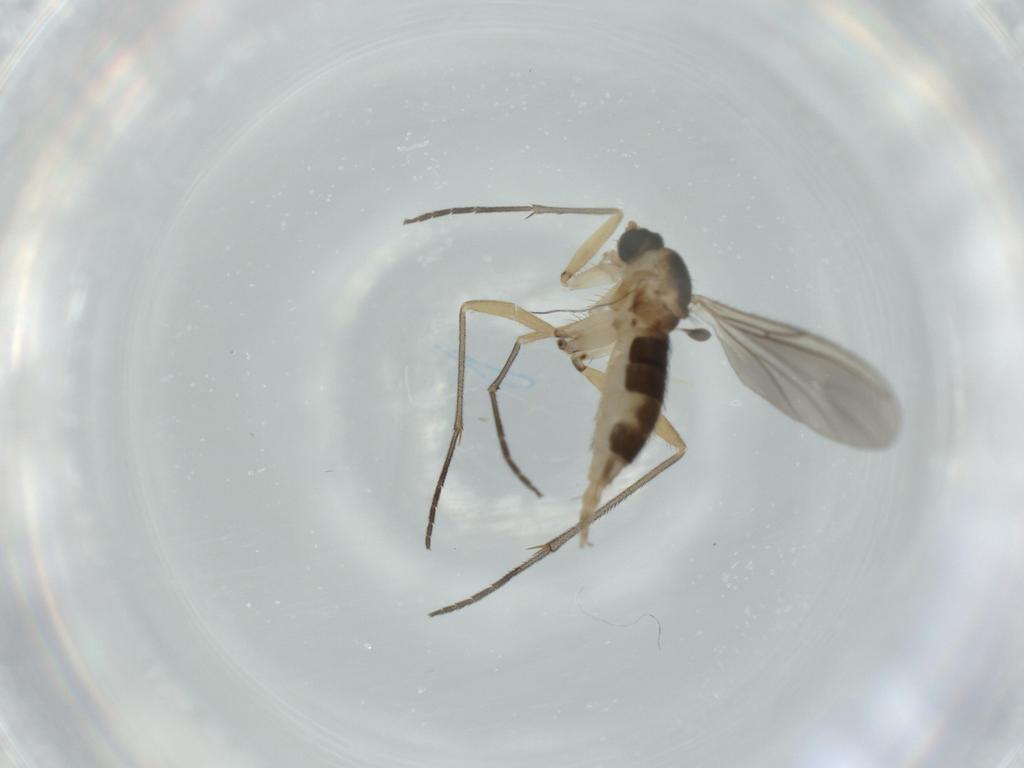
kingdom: Animalia
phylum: Arthropoda
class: Insecta
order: Diptera
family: Sciaridae
